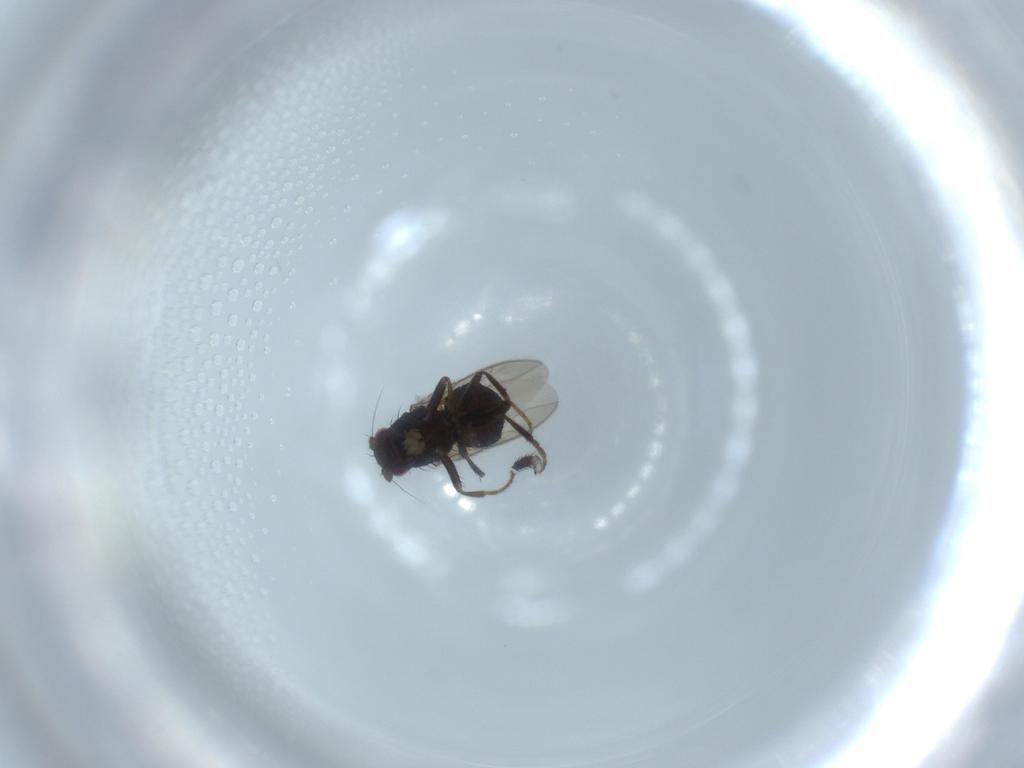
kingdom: Animalia
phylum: Arthropoda
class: Insecta
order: Diptera
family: Sphaeroceridae
